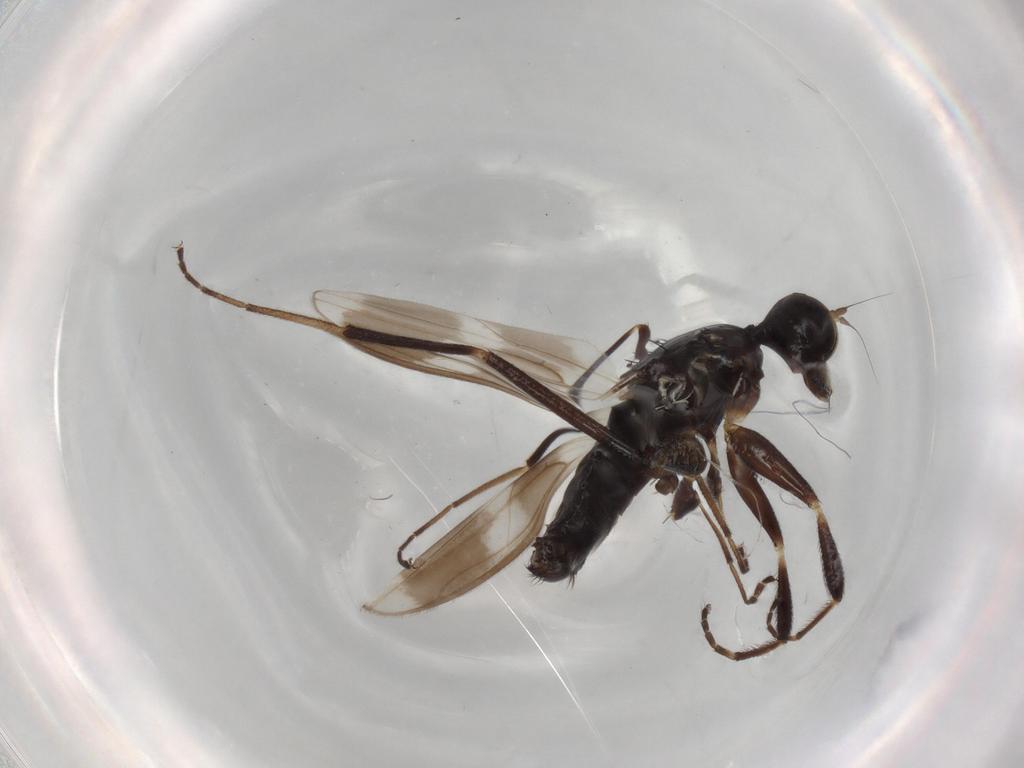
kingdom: Animalia
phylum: Arthropoda
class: Insecta
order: Diptera
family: Hybotidae
